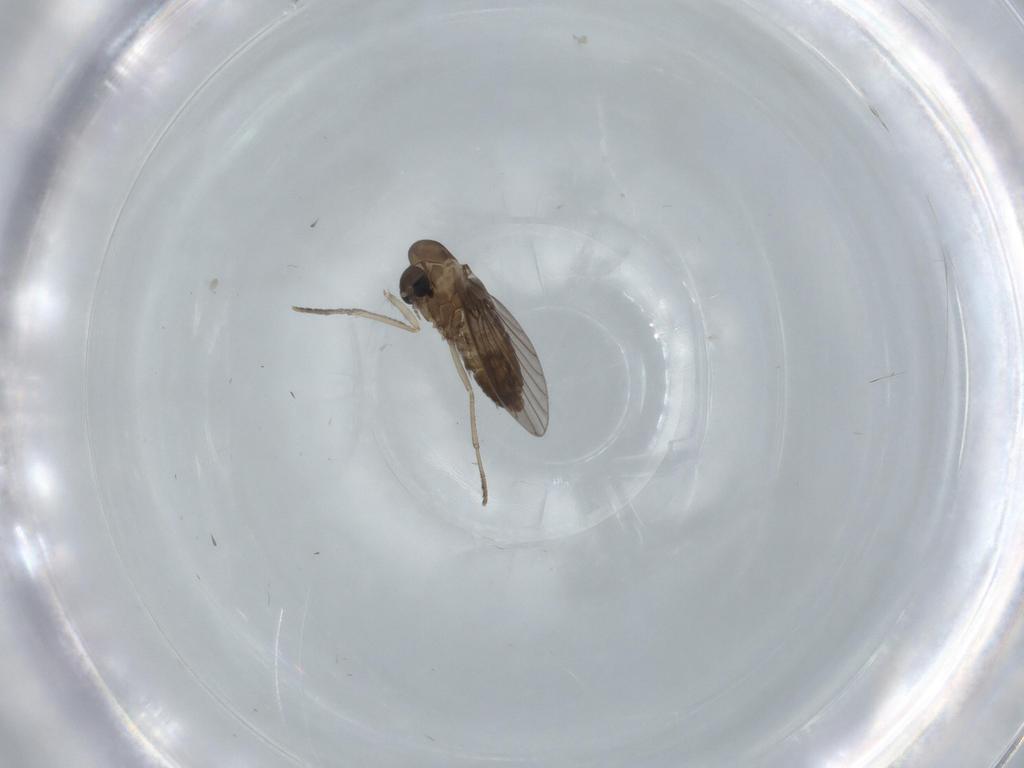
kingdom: Animalia
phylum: Arthropoda
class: Insecta
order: Diptera
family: Psychodidae
